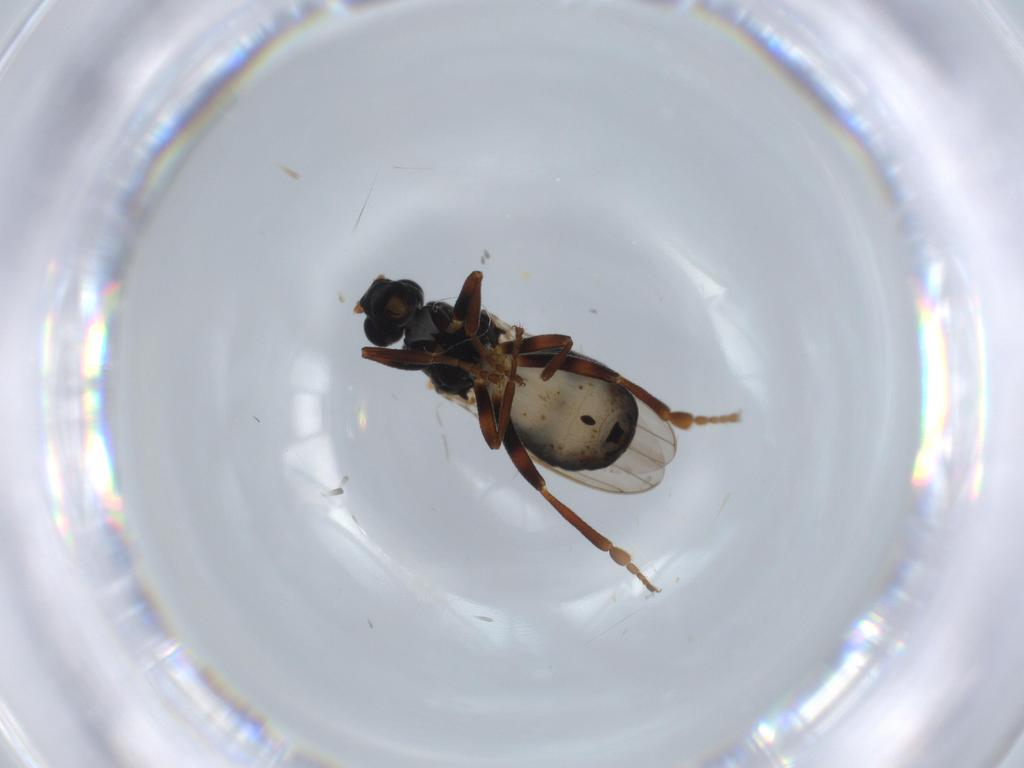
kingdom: Animalia
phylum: Arthropoda
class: Insecta
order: Diptera
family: Sphaeroceridae
